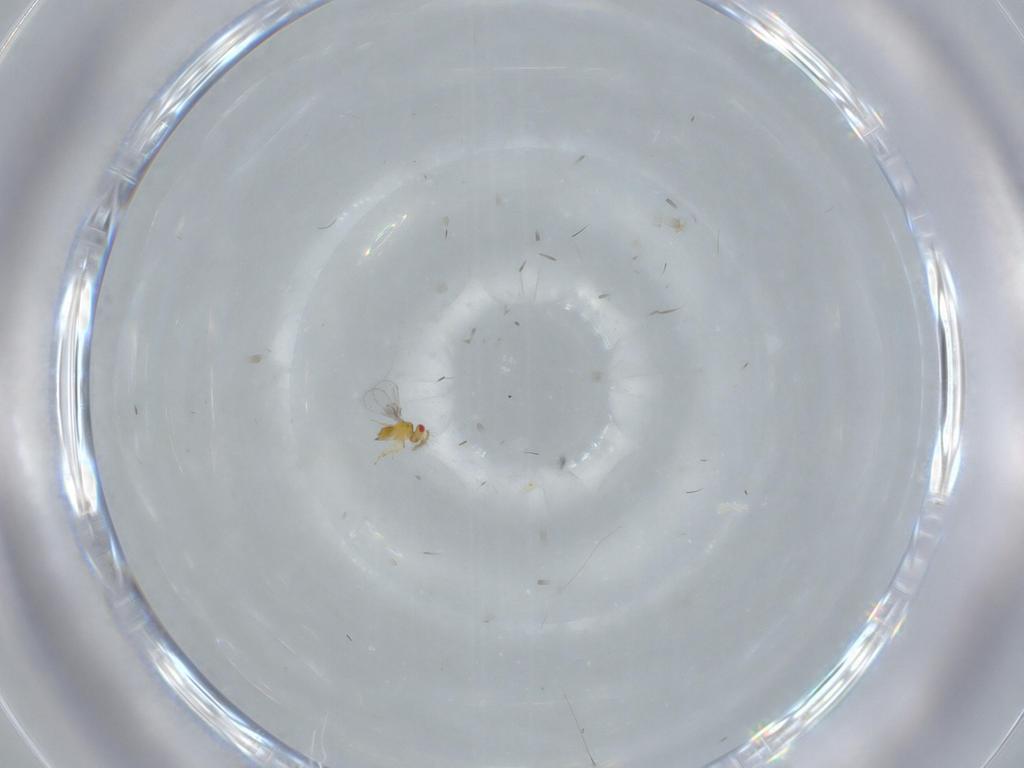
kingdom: Animalia
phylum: Arthropoda
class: Insecta
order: Hymenoptera
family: Trichogrammatidae
